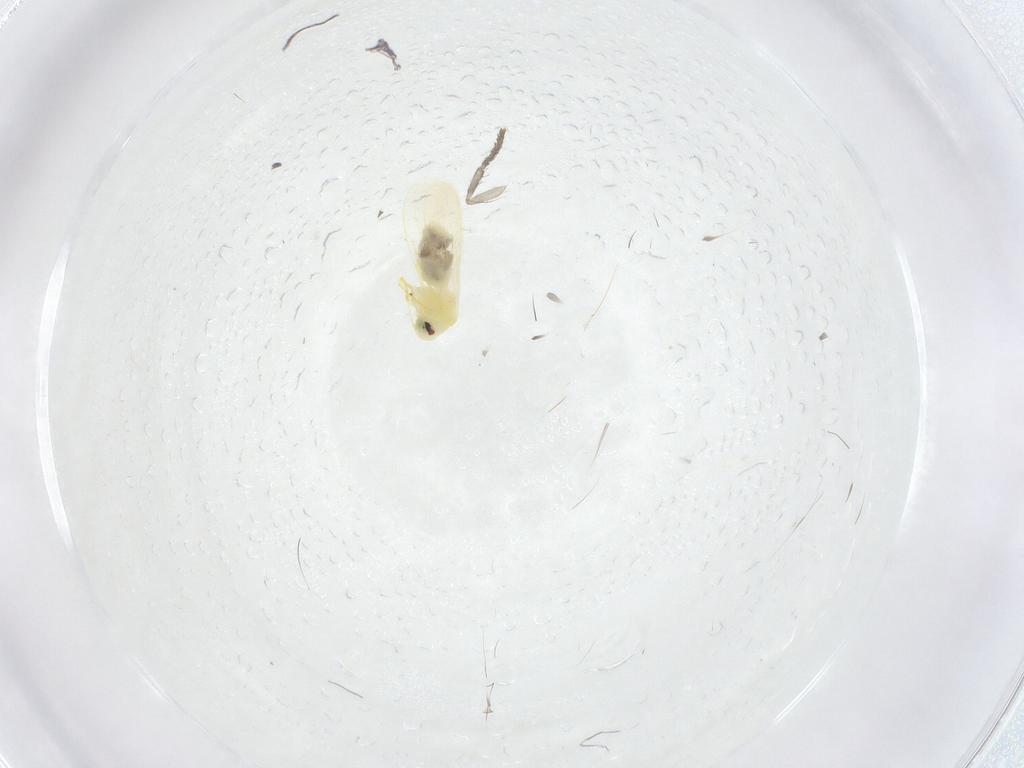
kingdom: Animalia
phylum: Arthropoda
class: Insecta
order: Hemiptera
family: Aleyrodidae
